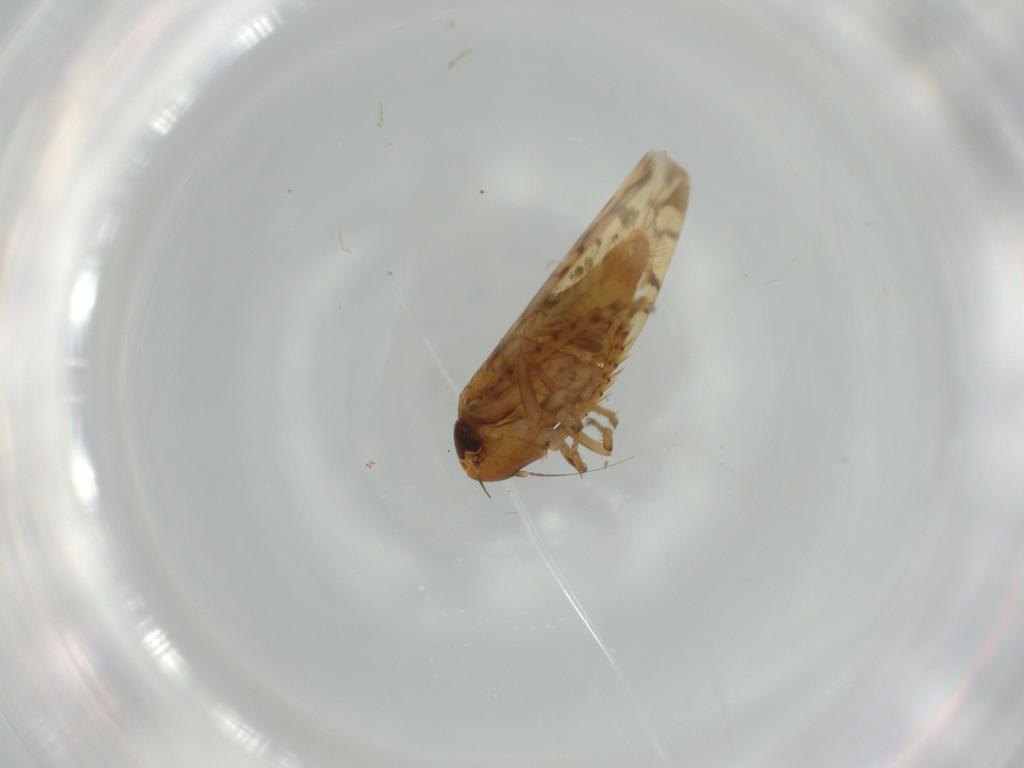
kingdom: Animalia
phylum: Arthropoda
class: Insecta
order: Hemiptera
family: Cicadellidae
